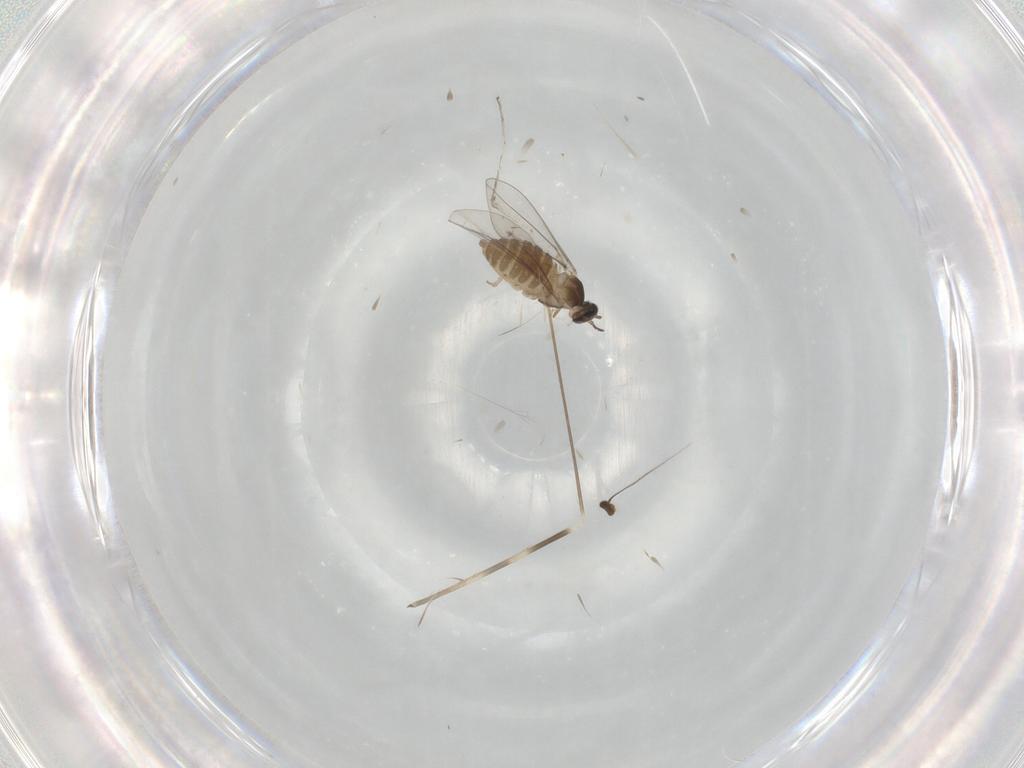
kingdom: Animalia
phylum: Arthropoda
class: Insecta
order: Diptera
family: Cecidomyiidae
